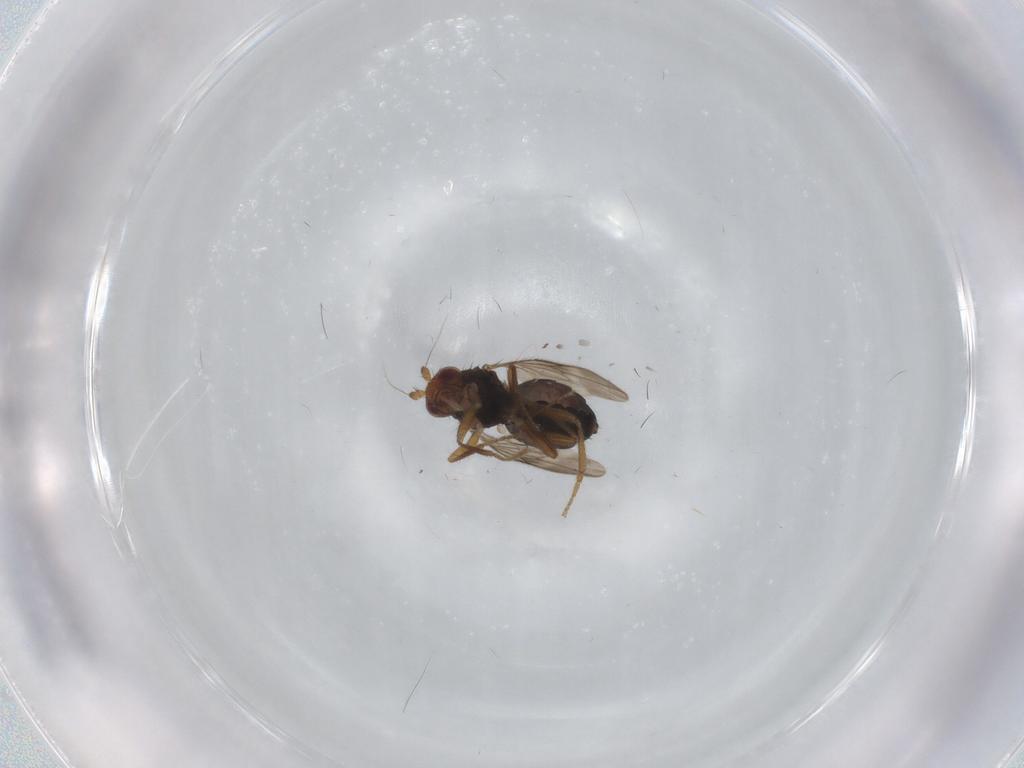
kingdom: Animalia
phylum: Arthropoda
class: Insecta
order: Diptera
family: Sphaeroceridae
